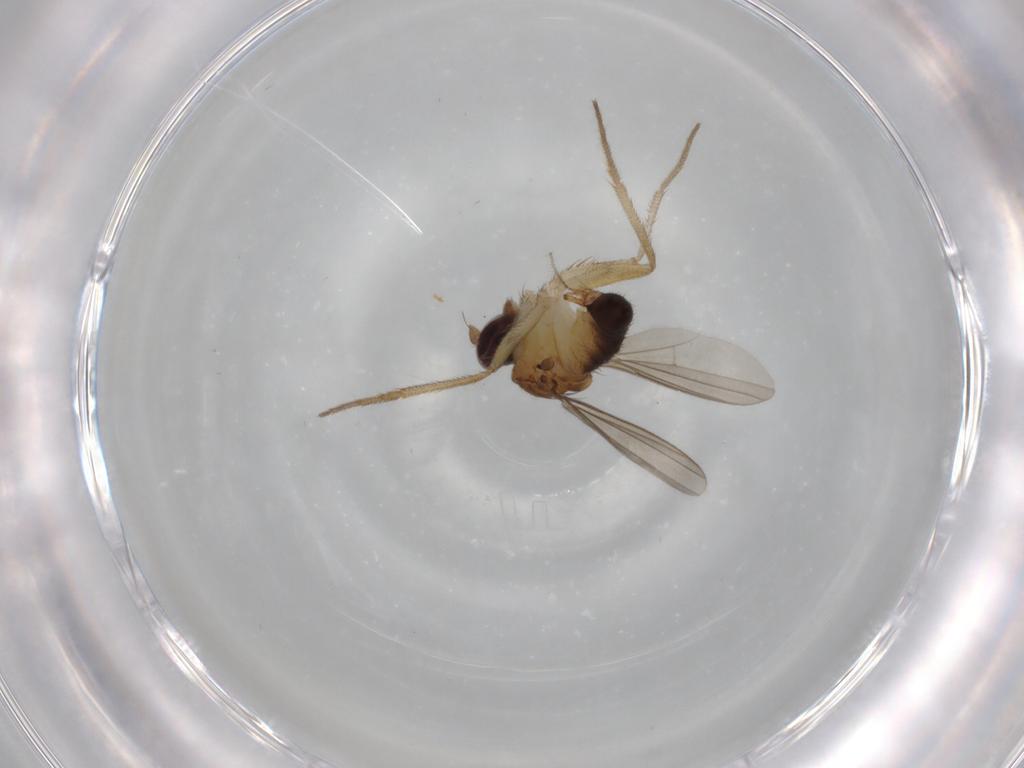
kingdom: Animalia
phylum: Arthropoda
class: Insecta
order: Diptera
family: Dolichopodidae
